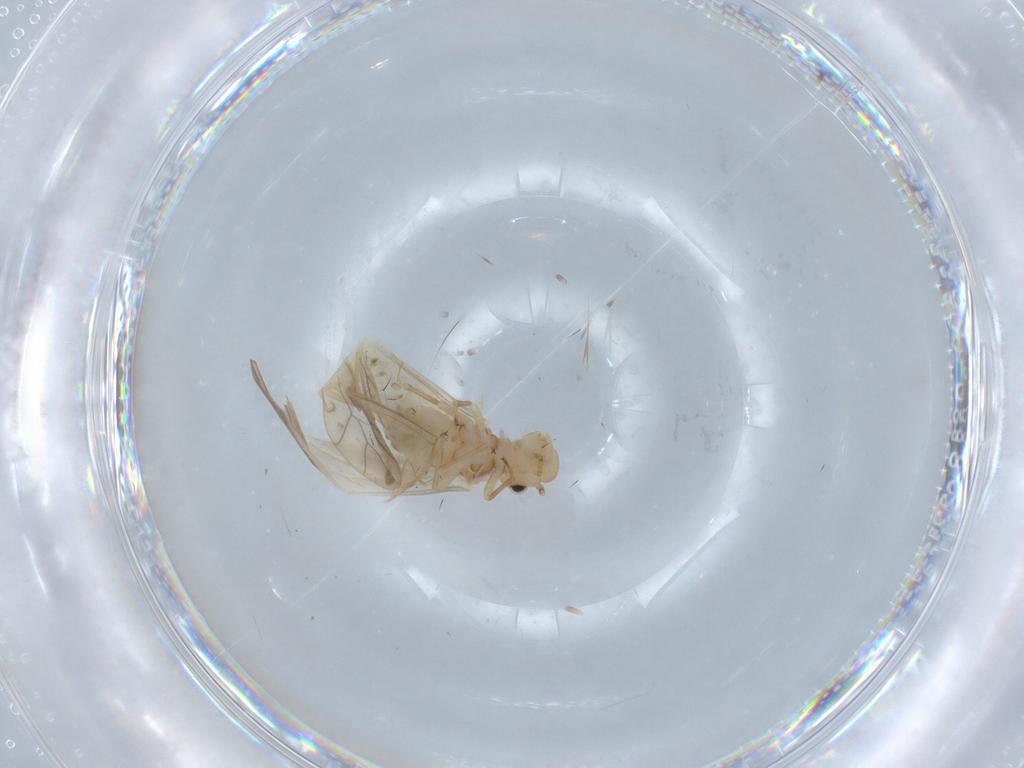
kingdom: Animalia
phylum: Arthropoda
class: Insecta
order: Psocodea
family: Caeciliusidae
